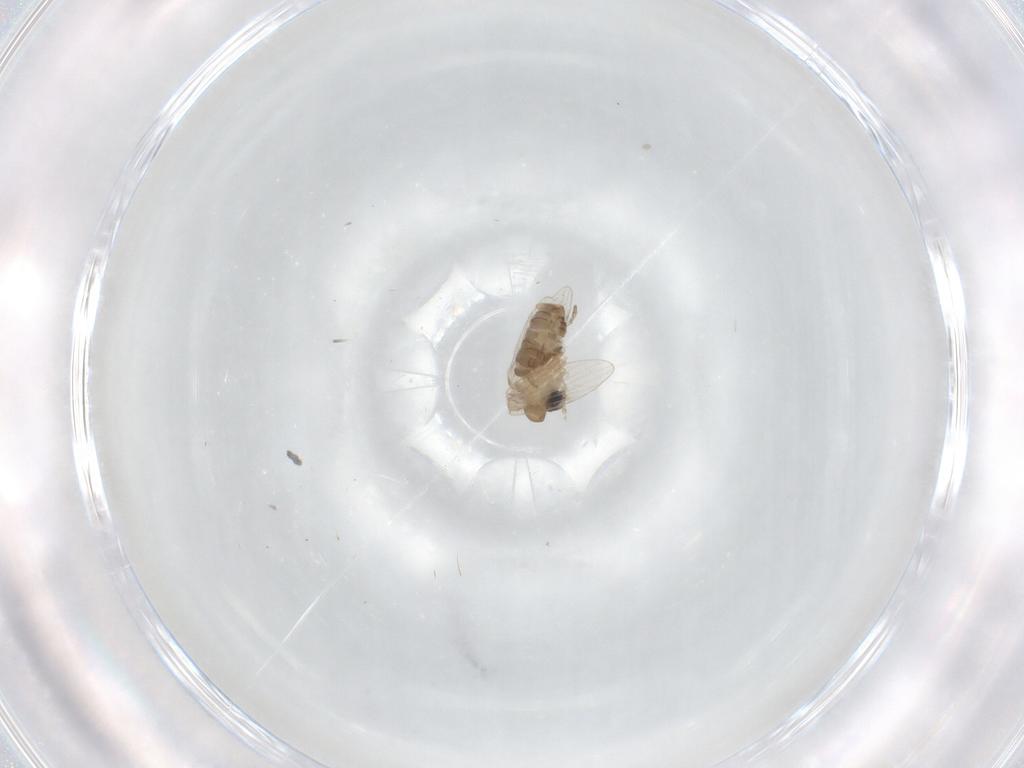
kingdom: Animalia
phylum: Arthropoda
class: Insecta
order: Diptera
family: Psychodidae
